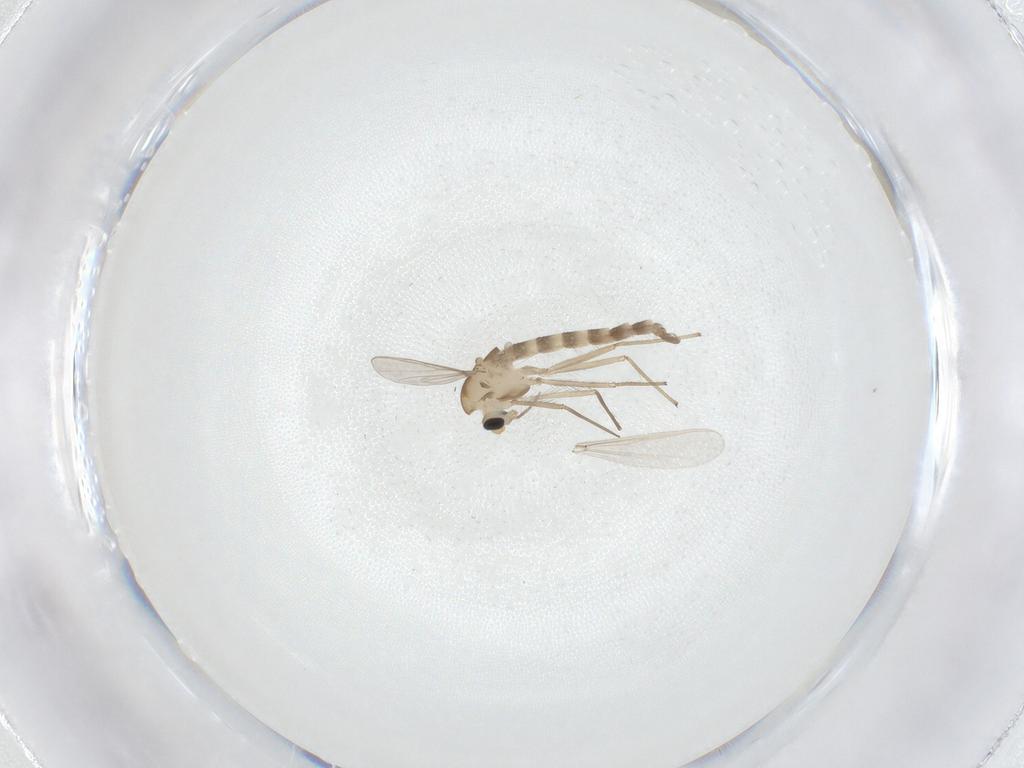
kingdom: Animalia
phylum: Arthropoda
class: Insecta
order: Diptera
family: Chironomidae
